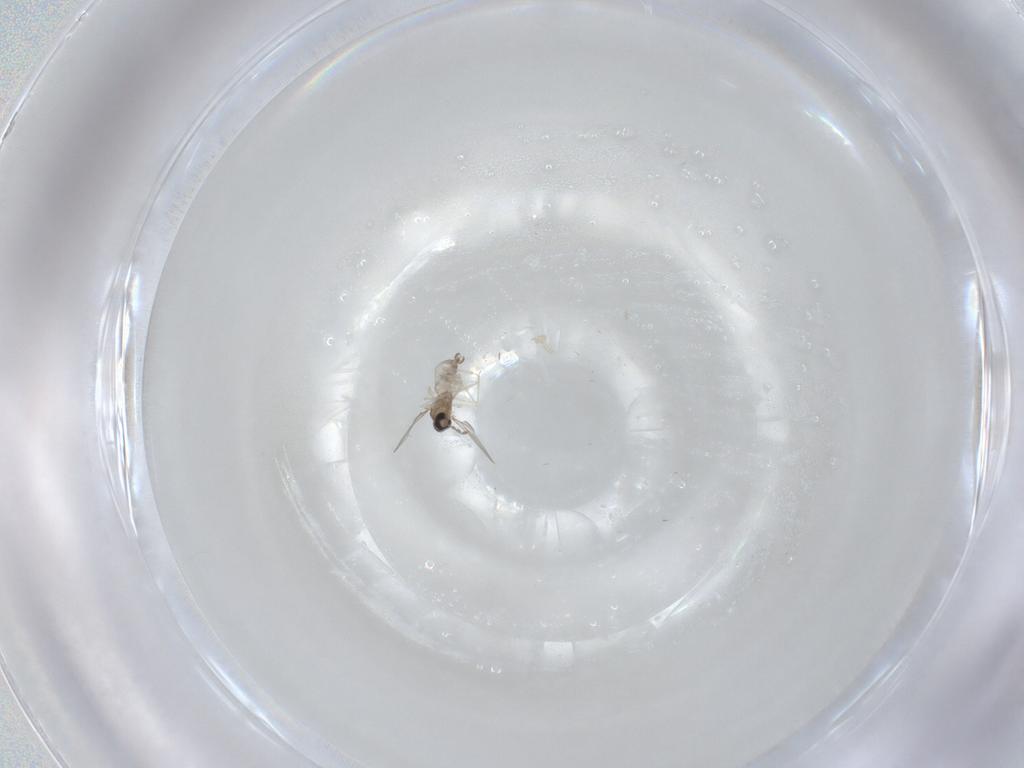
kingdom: Animalia
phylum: Arthropoda
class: Insecta
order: Diptera
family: Cecidomyiidae
